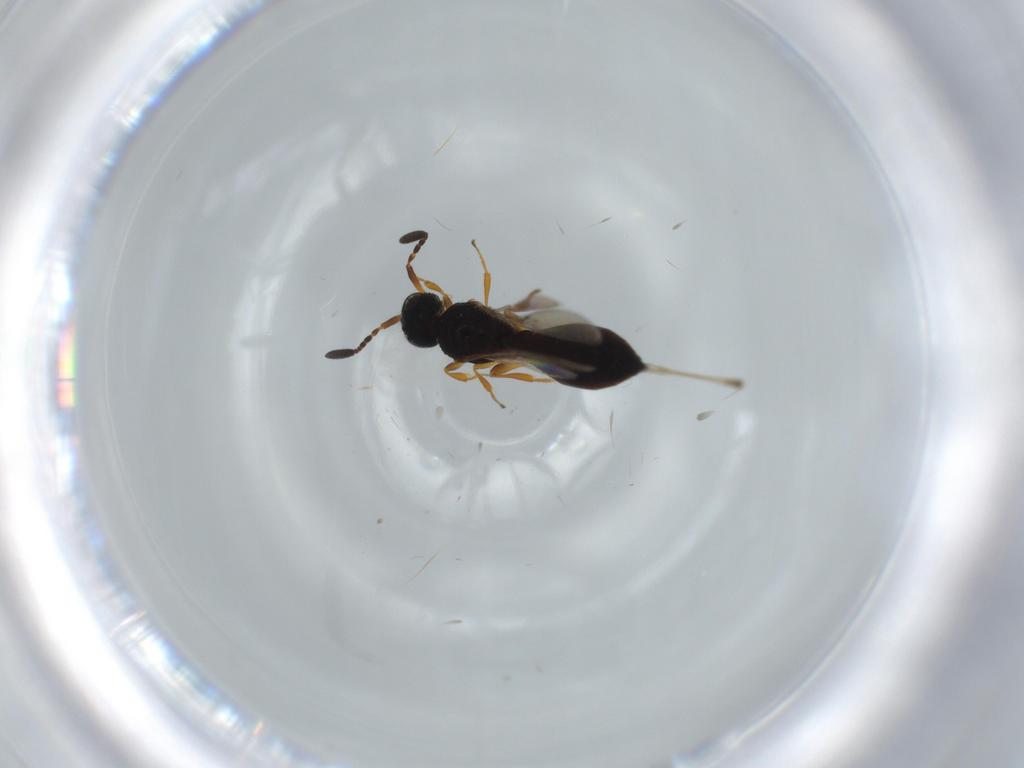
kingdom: Animalia
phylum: Arthropoda
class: Insecta
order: Hymenoptera
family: Scelionidae
